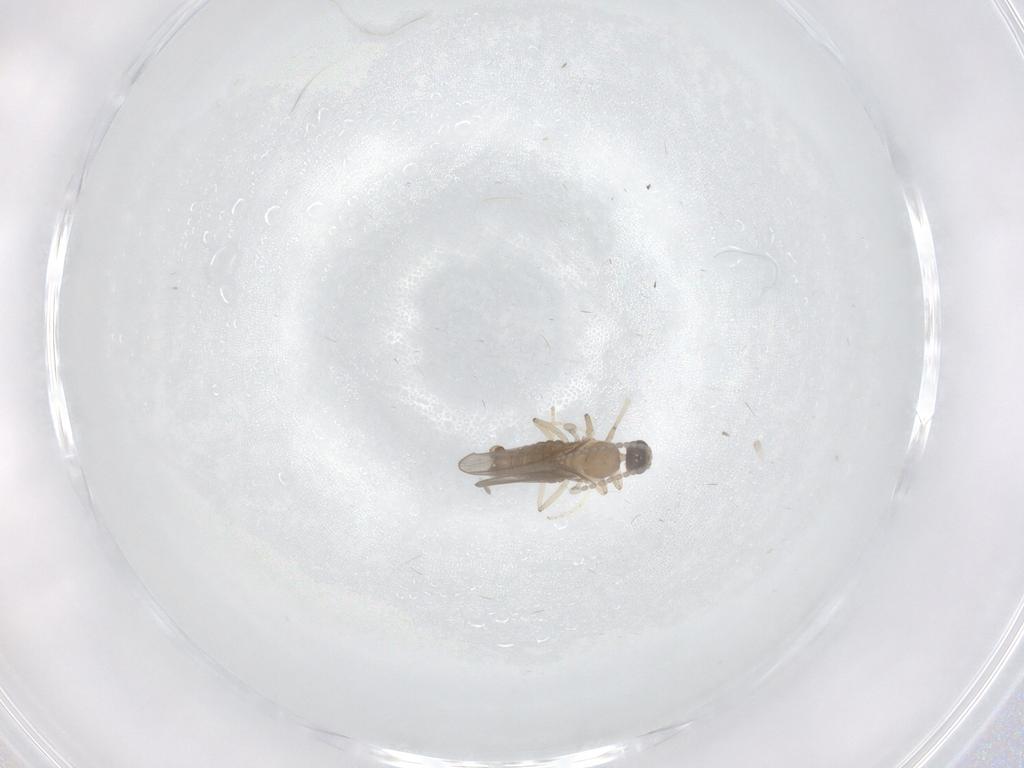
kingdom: Animalia
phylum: Arthropoda
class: Insecta
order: Diptera
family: Cecidomyiidae
